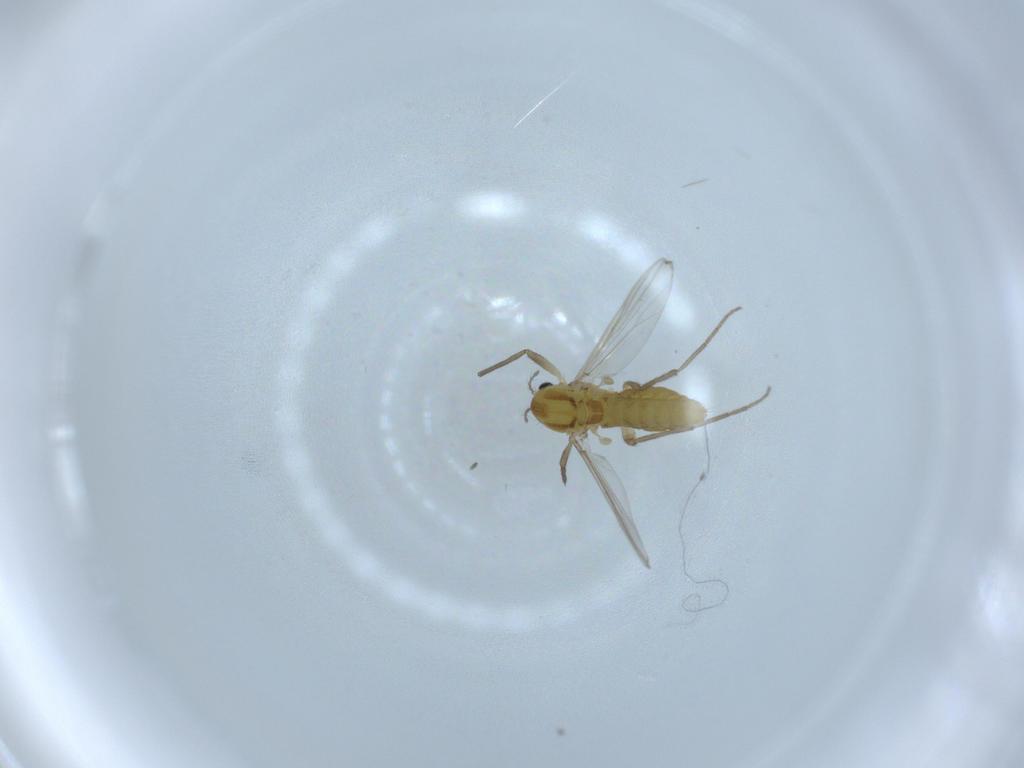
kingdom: Animalia
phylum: Arthropoda
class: Insecta
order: Diptera
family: Chironomidae
